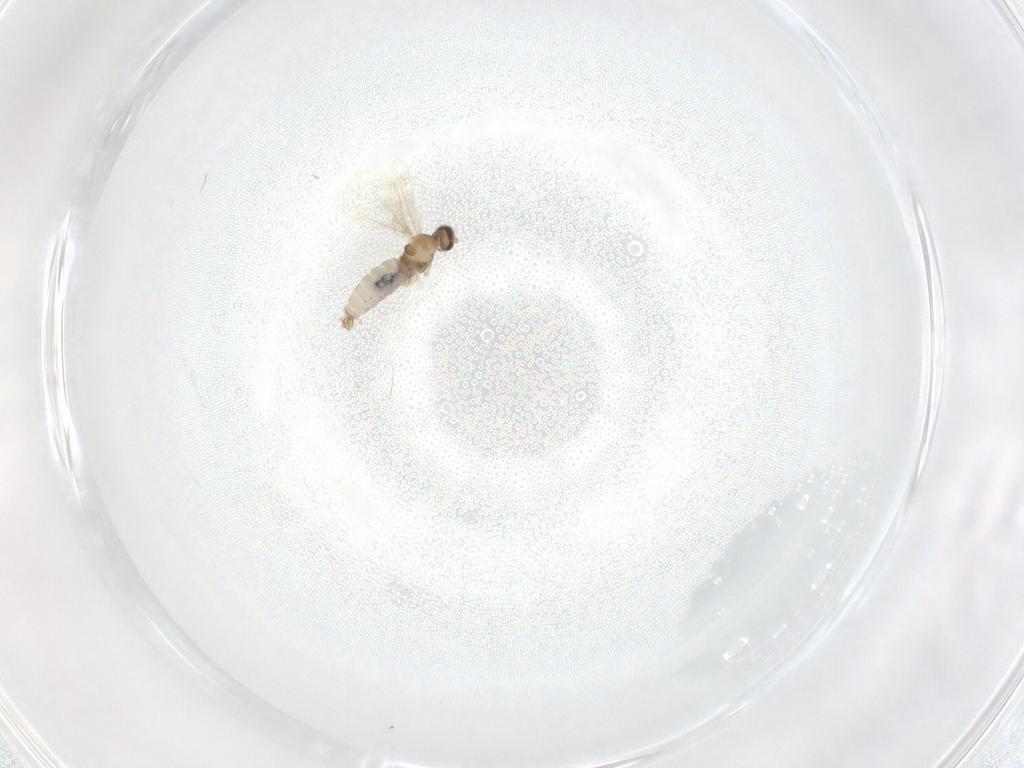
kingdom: Animalia
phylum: Arthropoda
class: Insecta
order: Diptera
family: Cecidomyiidae
